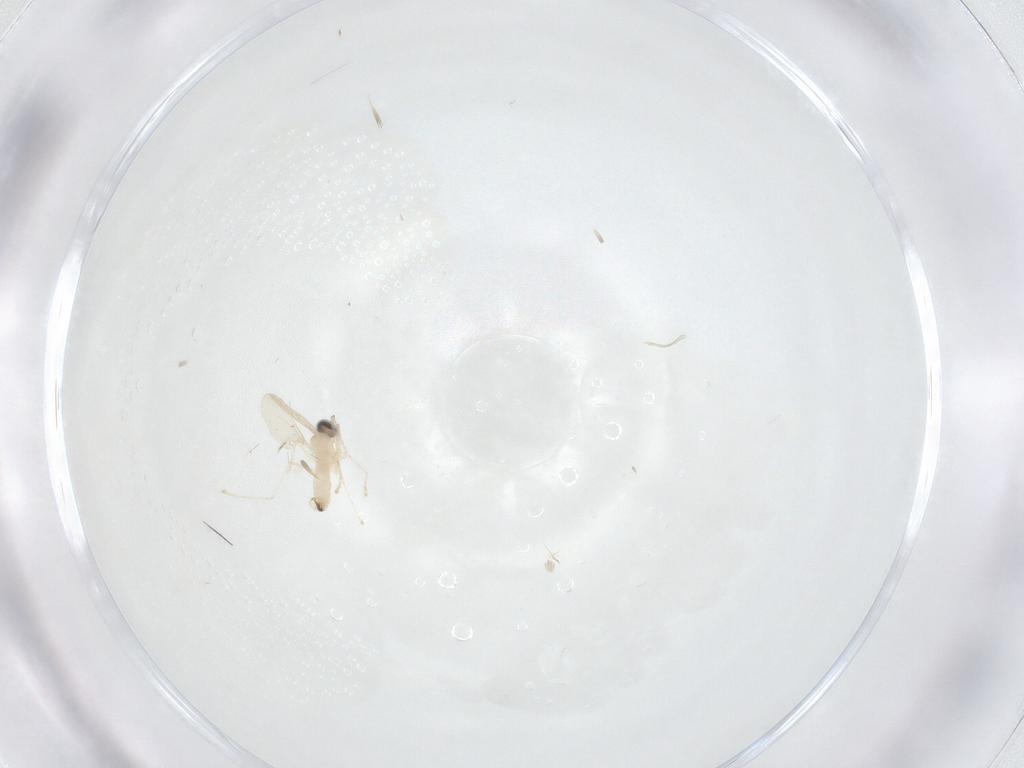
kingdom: Animalia
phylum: Arthropoda
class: Insecta
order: Diptera
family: Cecidomyiidae
